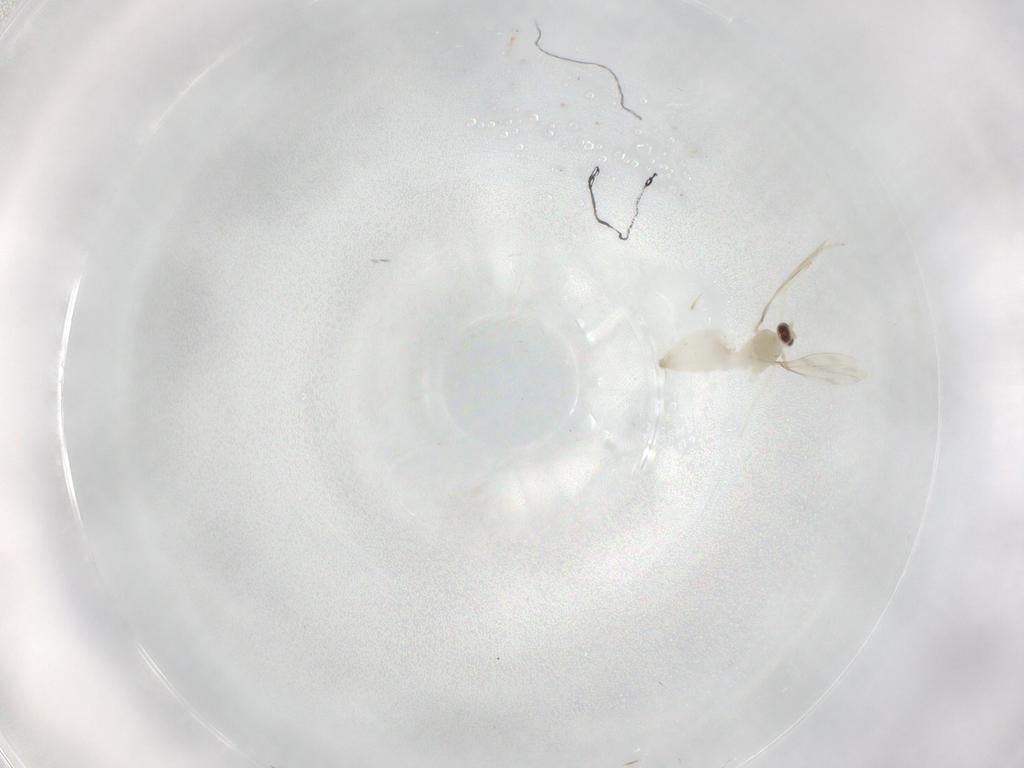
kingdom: Animalia
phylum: Arthropoda
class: Insecta
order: Diptera
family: Cecidomyiidae
